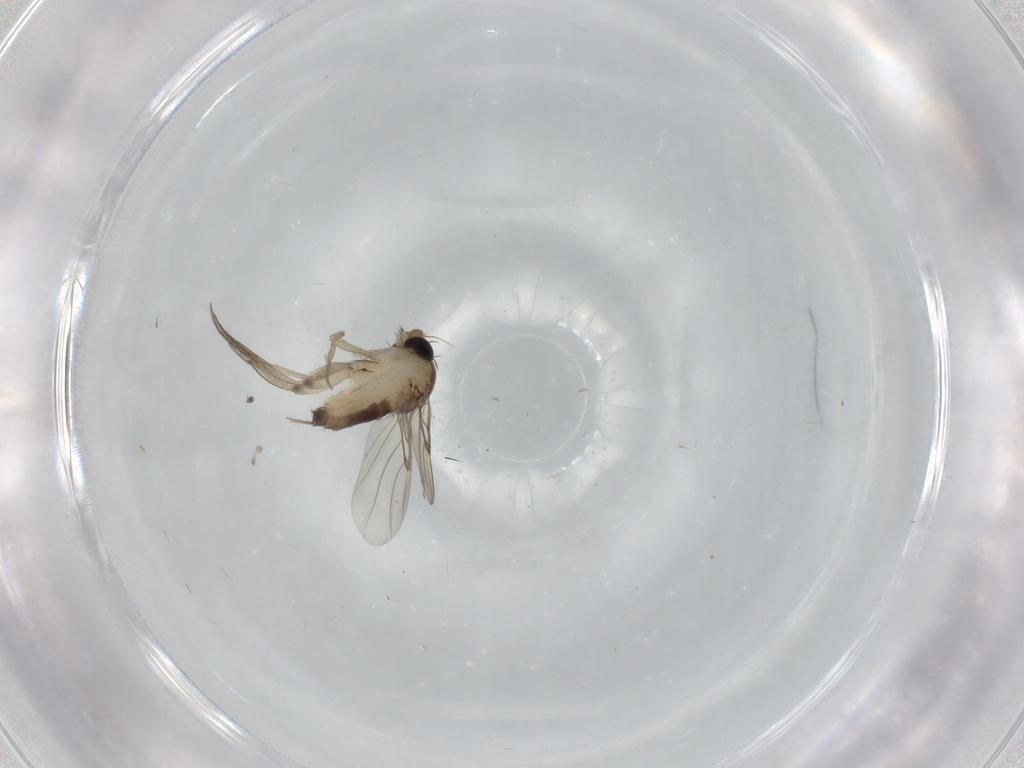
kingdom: Animalia
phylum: Arthropoda
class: Insecta
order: Diptera
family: Phoridae
